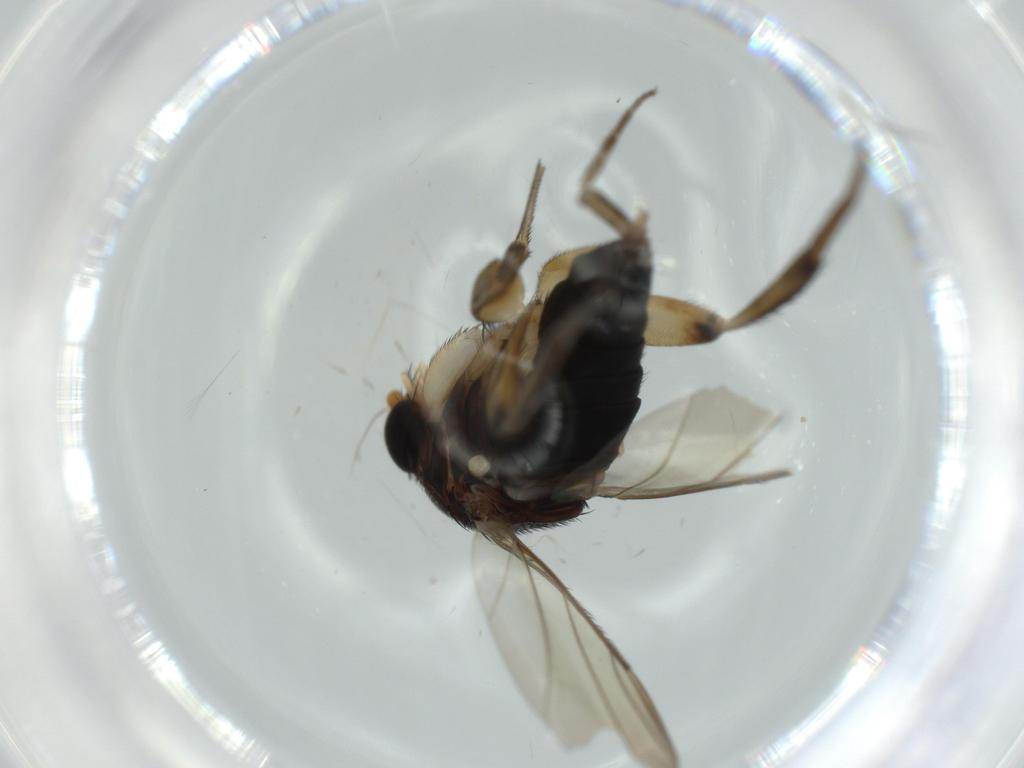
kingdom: Animalia
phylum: Arthropoda
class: Insecta
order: Diptera
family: Phoridae
